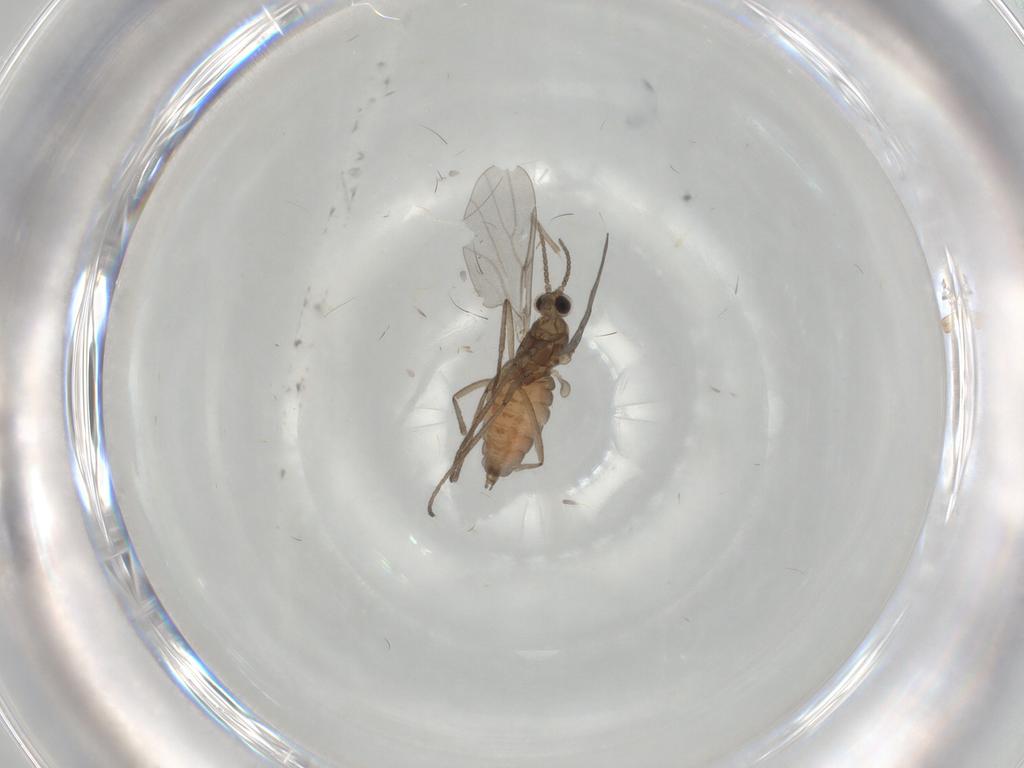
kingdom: Animalia
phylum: Arthropoda
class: Insecta
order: Diptera
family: Cecidomyiidae
